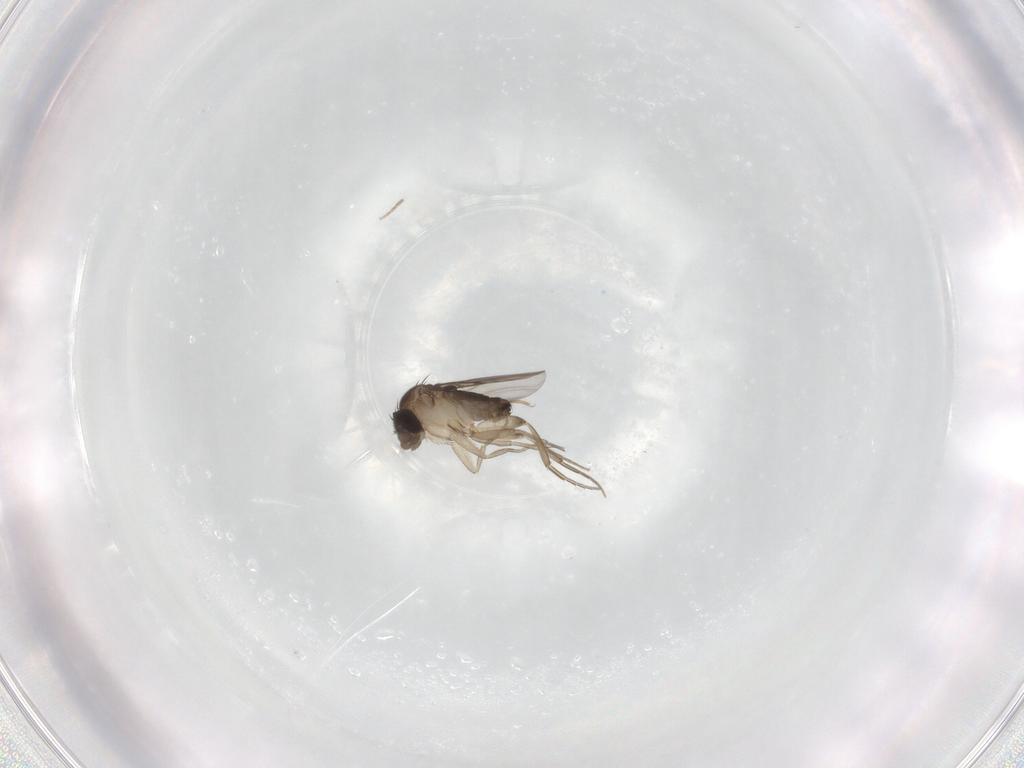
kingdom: Animalia
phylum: Arthropoda
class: Insecta
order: Diptera
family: Phoridae
